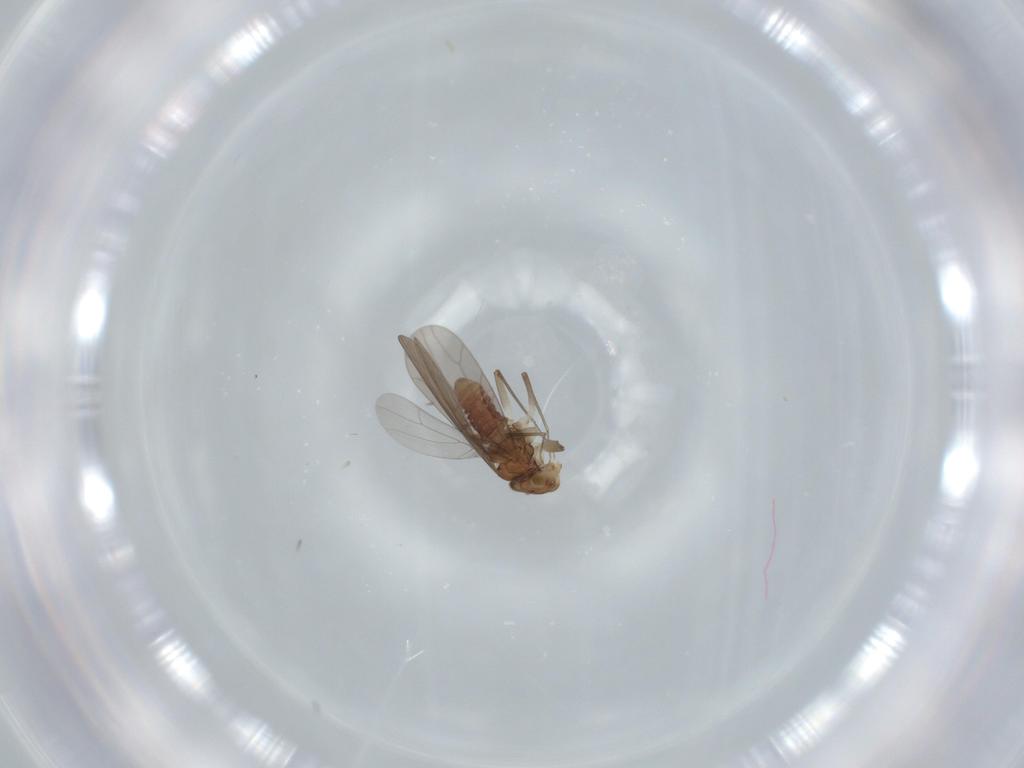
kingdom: Animalia
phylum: Arthropoda
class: Insecta
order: Psocodea
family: Lepidopsocidae
